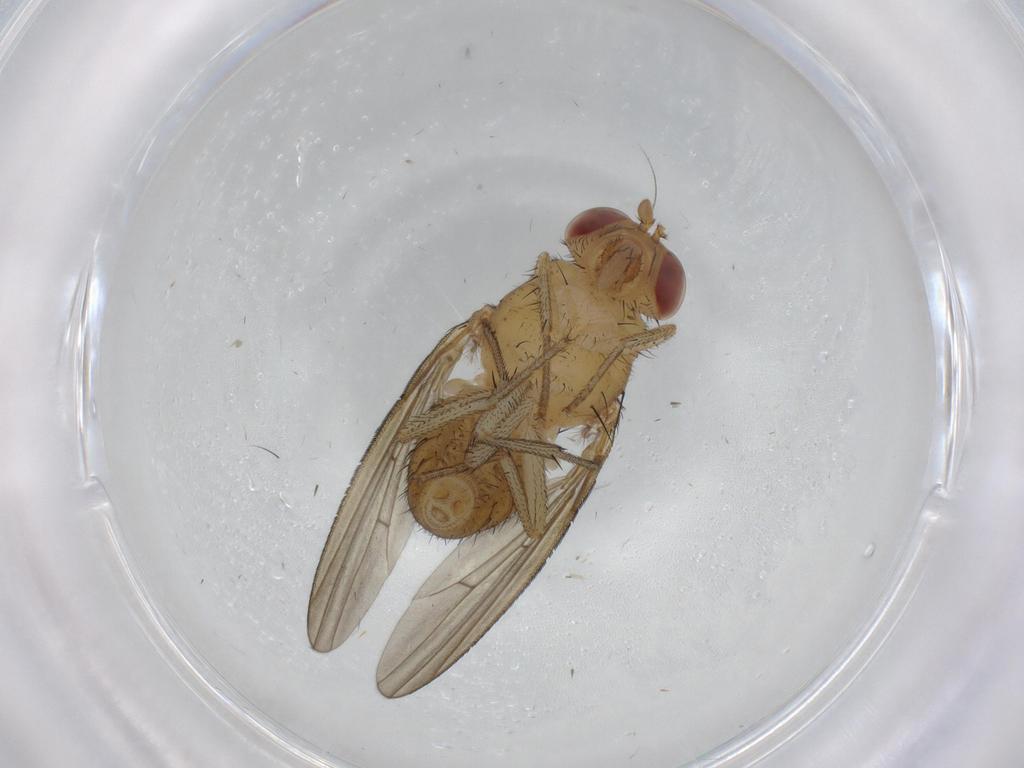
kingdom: Animalia
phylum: Arthropoda
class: Insecta
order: Diptera
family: Lauxaniidae
